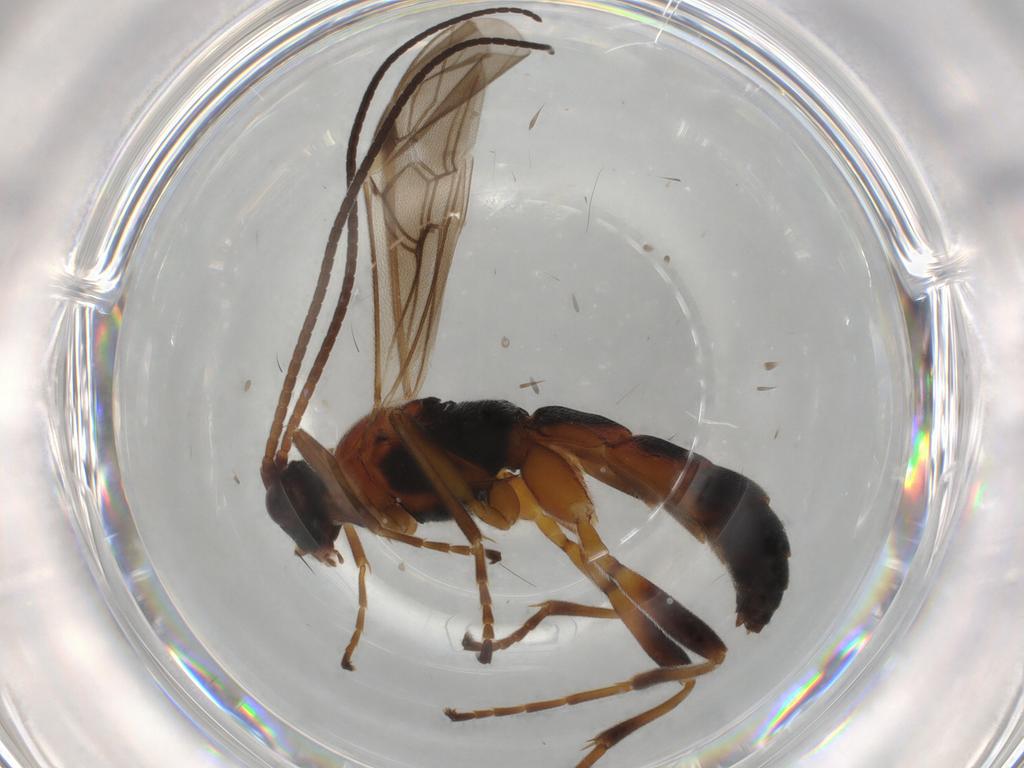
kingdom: Animalia
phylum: Arthropoda
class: Insecta
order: Hymenoptera
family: Braconidae
